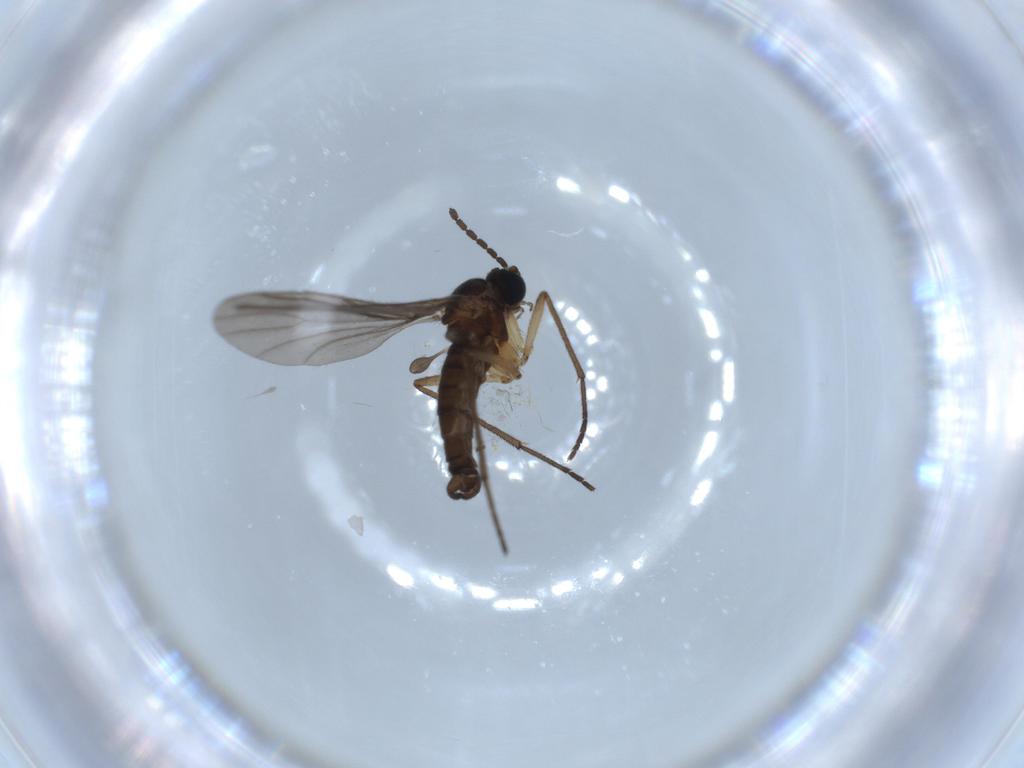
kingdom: Animalia
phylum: Arthropoda
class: Insecta
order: Diptera
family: Sciaridae
